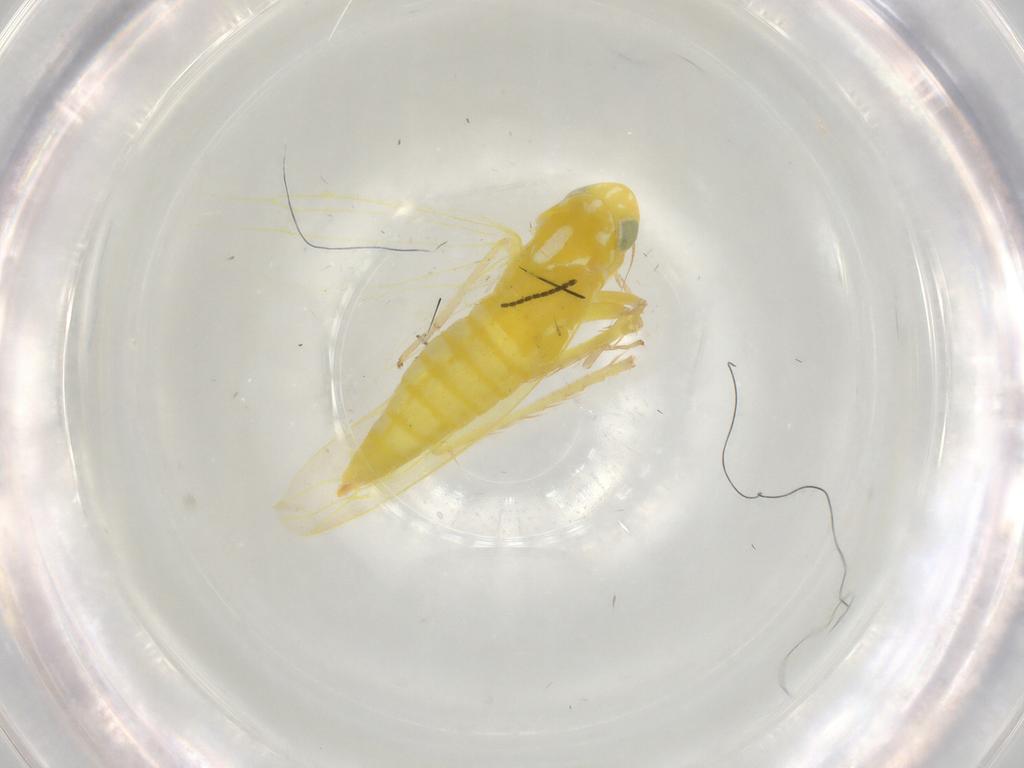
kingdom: Animalia
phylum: Arthropoda
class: Insecta
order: Hemiptera
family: Cicadellidae
